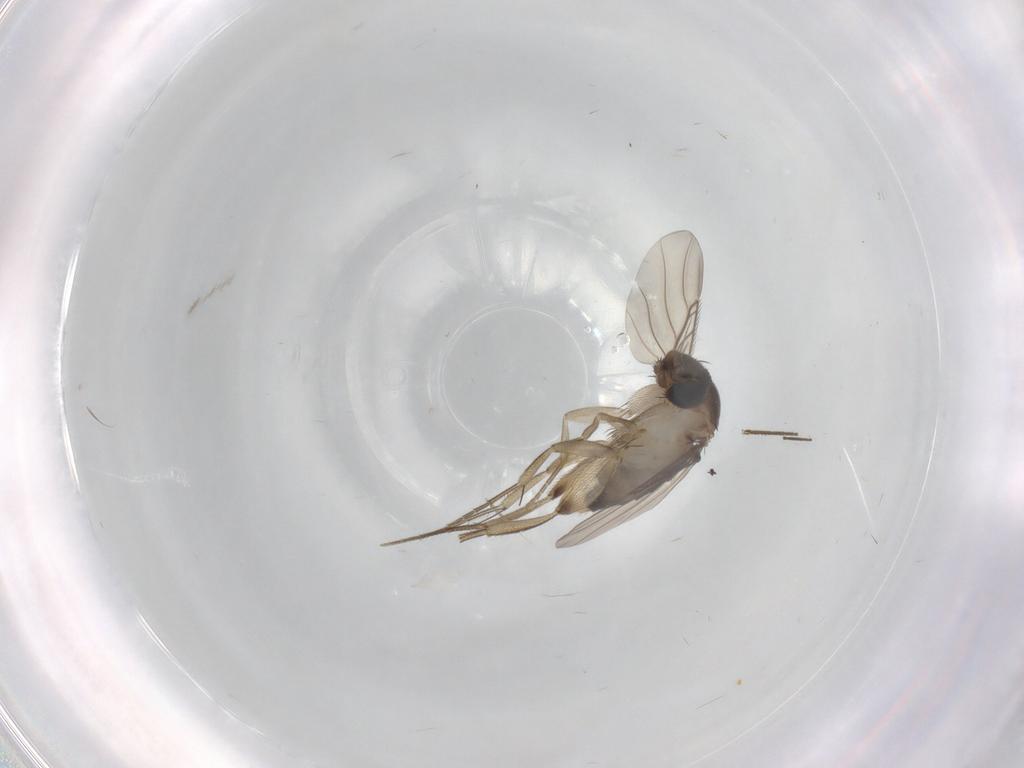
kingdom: Animalia
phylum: Arthropoda
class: Insecta
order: Diptera
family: Phoridae
